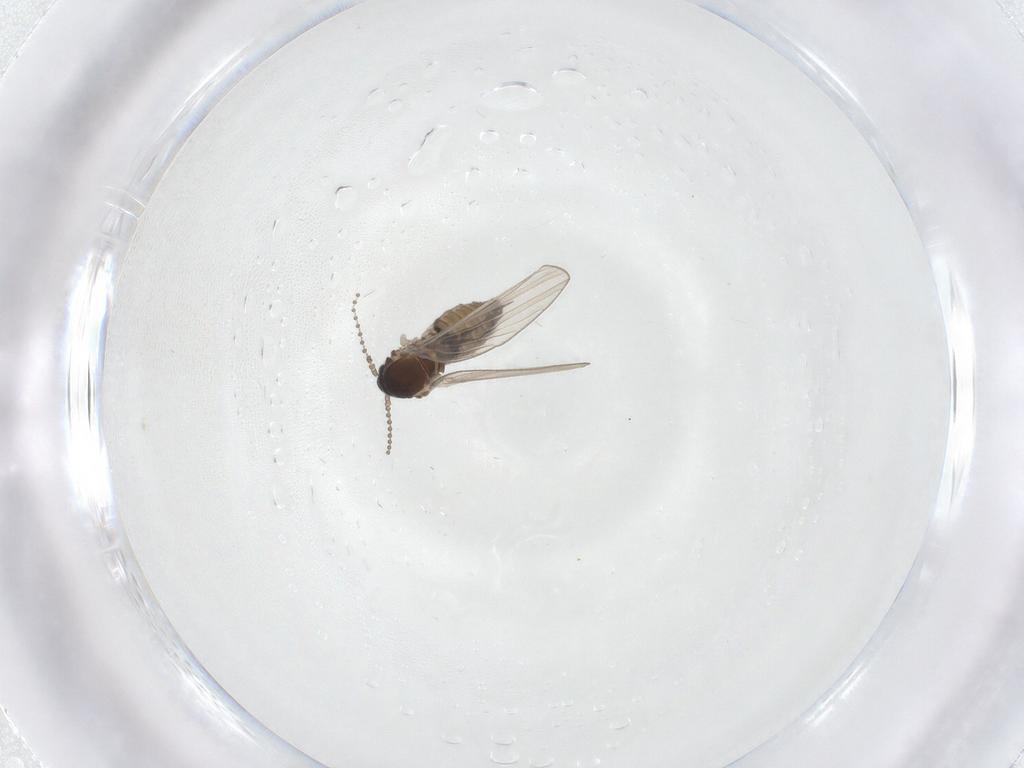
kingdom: Animalia
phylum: Arthropoda
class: Insecta
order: Diptera
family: Psychodidae
